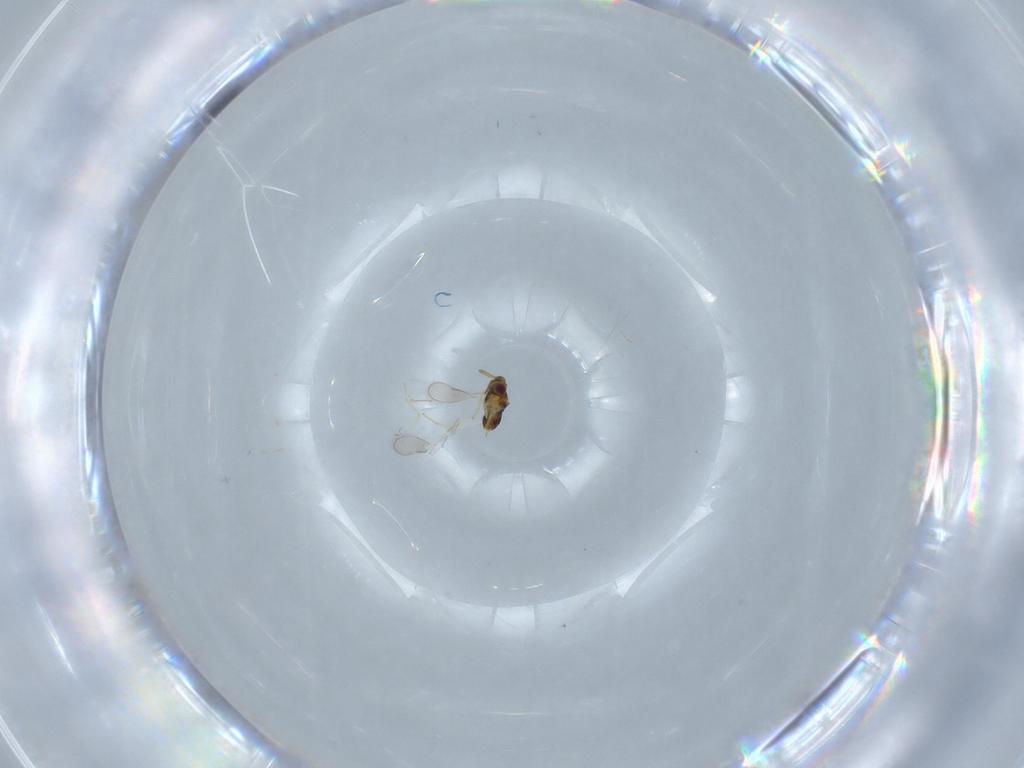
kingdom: Animalia
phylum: Arthropoda
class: Insecta
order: Hymenoptera
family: Aphelinidae
